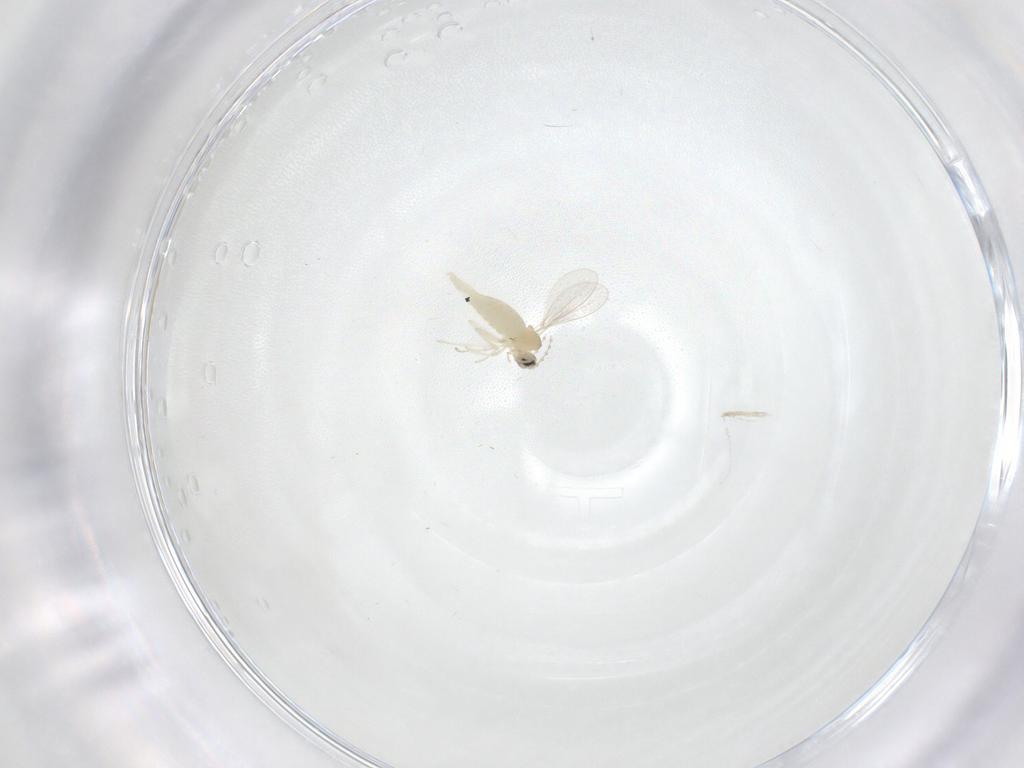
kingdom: Animalia
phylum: Arthropoda
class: Insecta
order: Diptera
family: Cecidomyiidae
